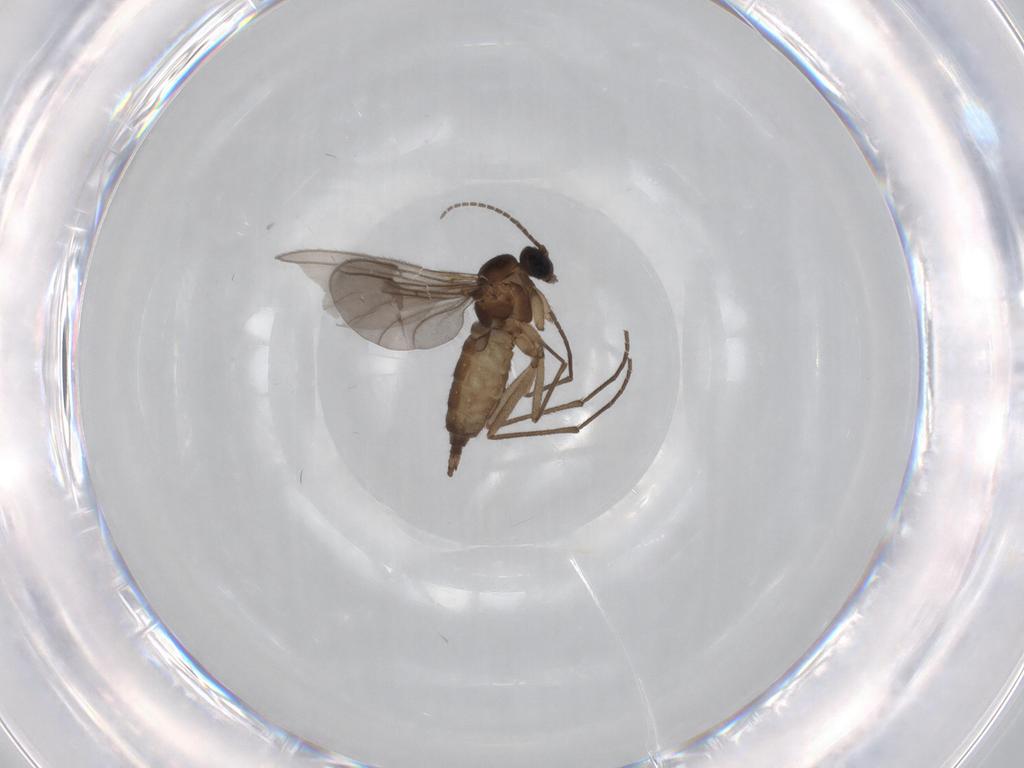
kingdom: Animalia
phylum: Arthropoda
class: Insecta
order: Diptera
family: Sciaridae
